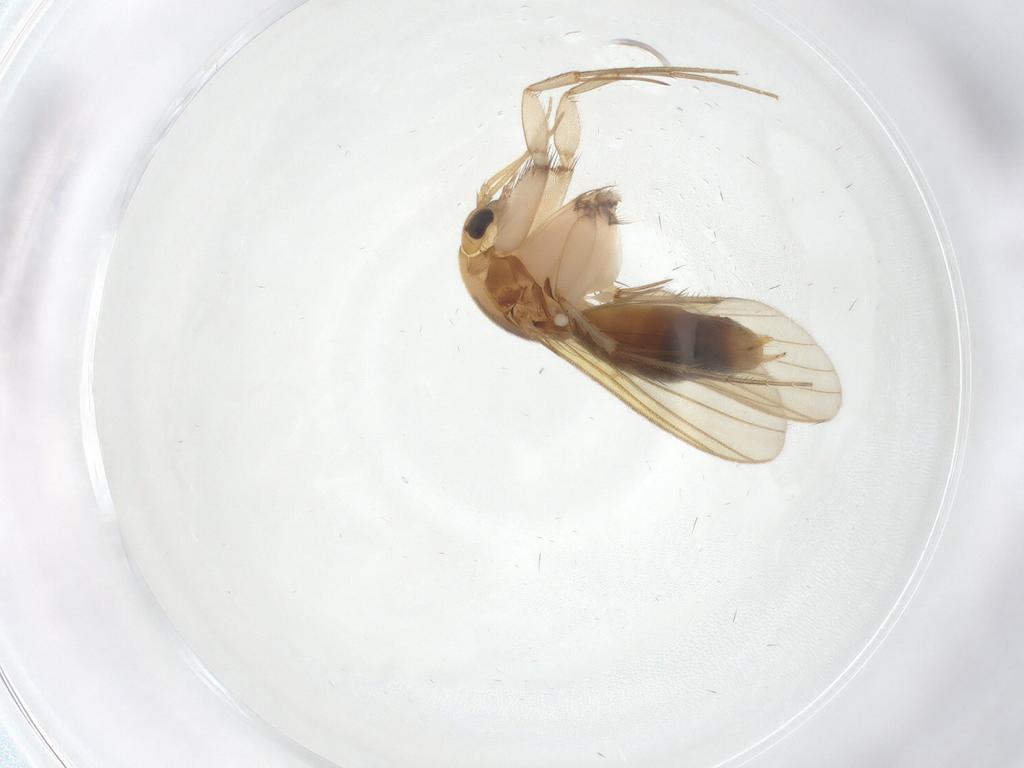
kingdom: Animalia
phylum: Arthropoda
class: Insecta
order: Diptera
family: Mycetophilidae
